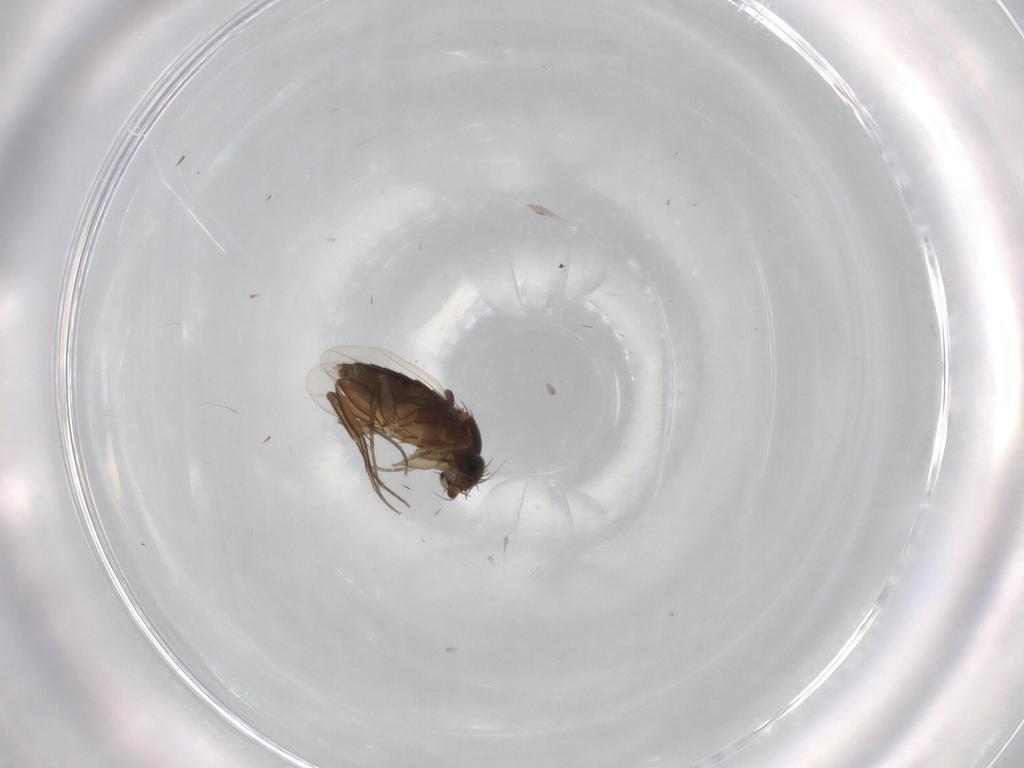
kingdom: Animalia
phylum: Arthropoda
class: Insecta
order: Diptera
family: Phoridae
